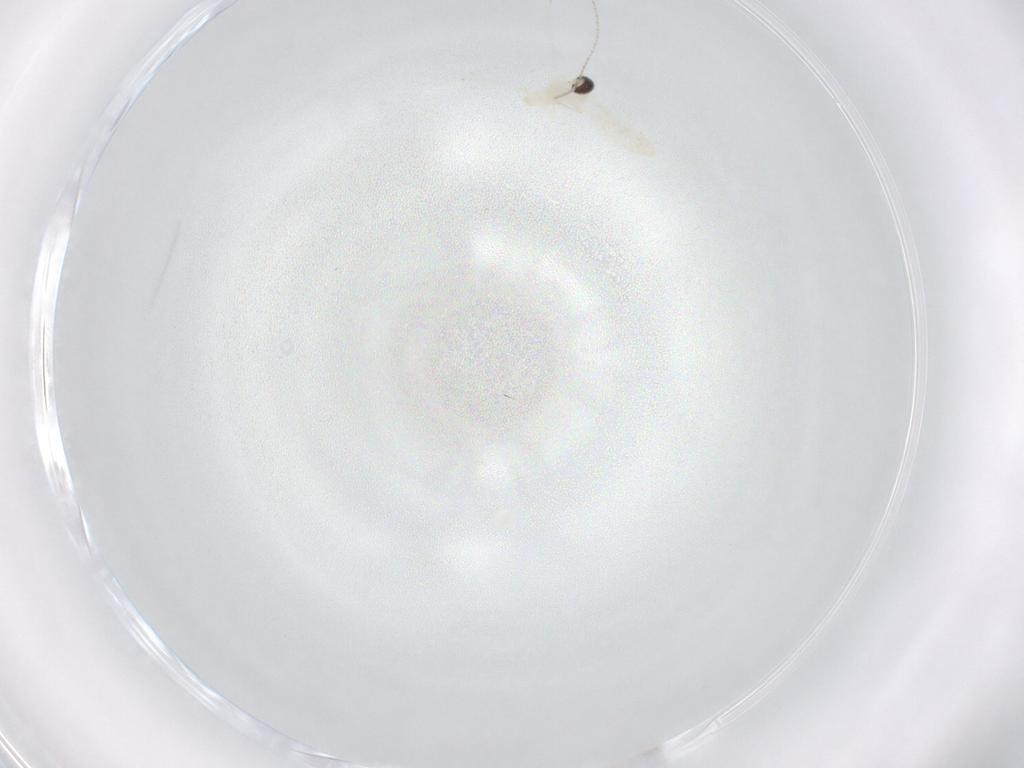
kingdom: Animalia
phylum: Arthropoda
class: Insecta
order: Diptera
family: Cecidomyiidae
